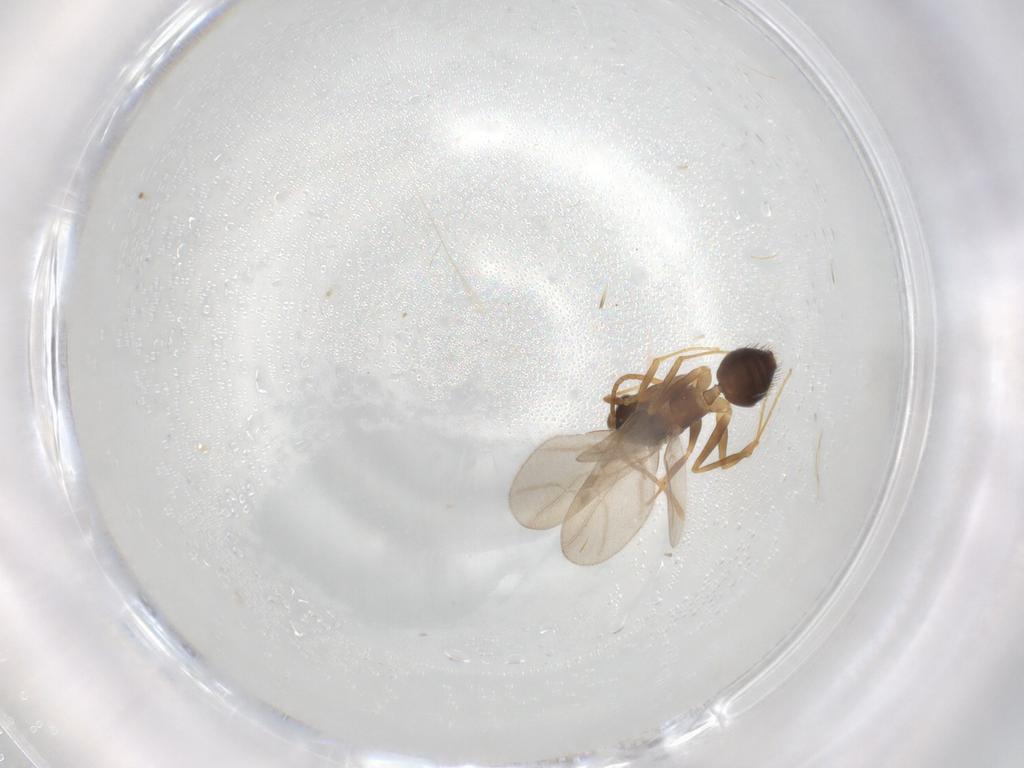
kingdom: Animalia
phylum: Arthropoda
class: Insecta
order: Hymenoptera
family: Formicidae
